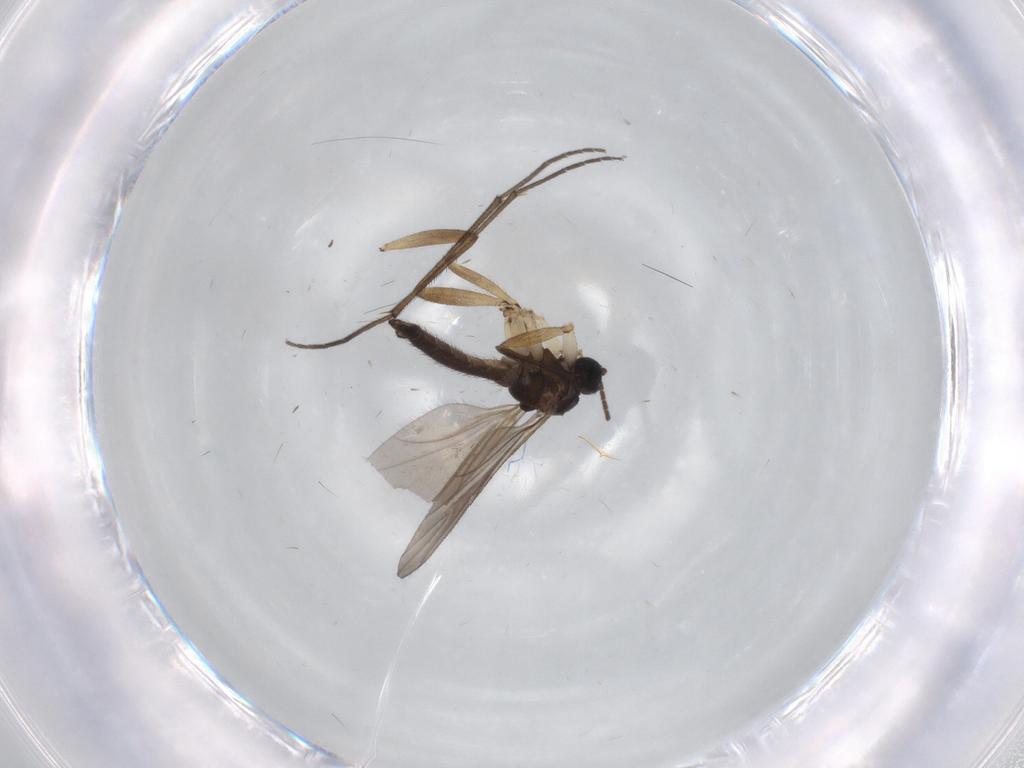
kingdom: Animalia
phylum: Arthropoda
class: Insecta
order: Diptera
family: Sciaridae
